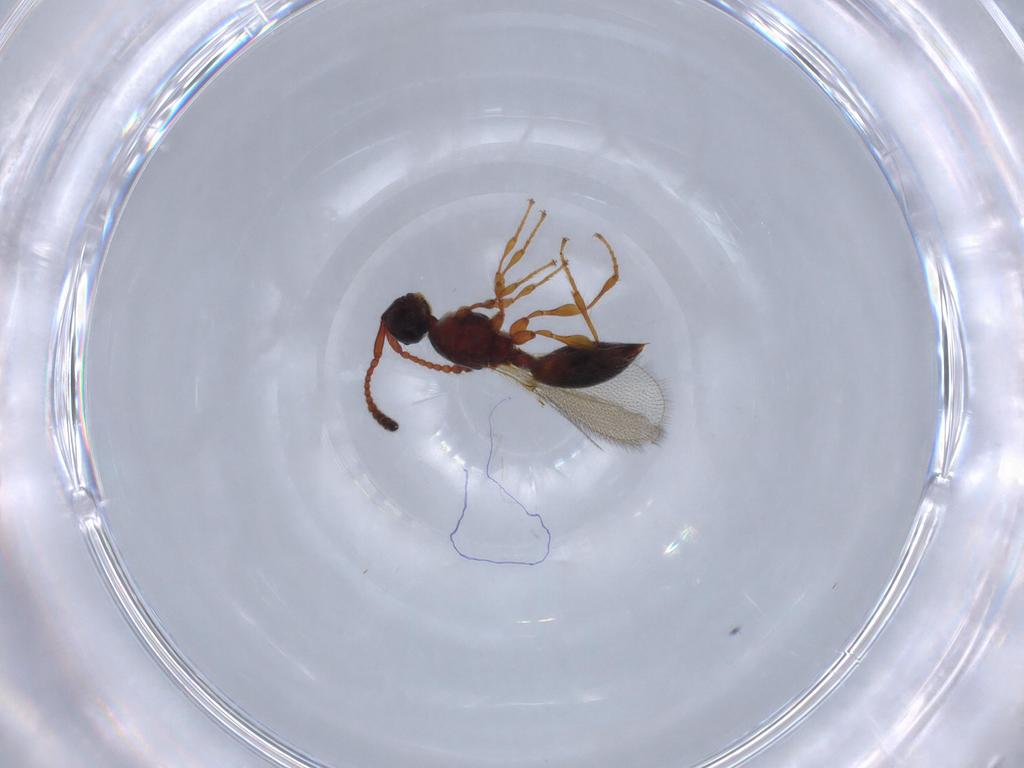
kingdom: Animalia
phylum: Arthropoda
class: Insecta
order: Hymenoptera
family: Diapriidae
